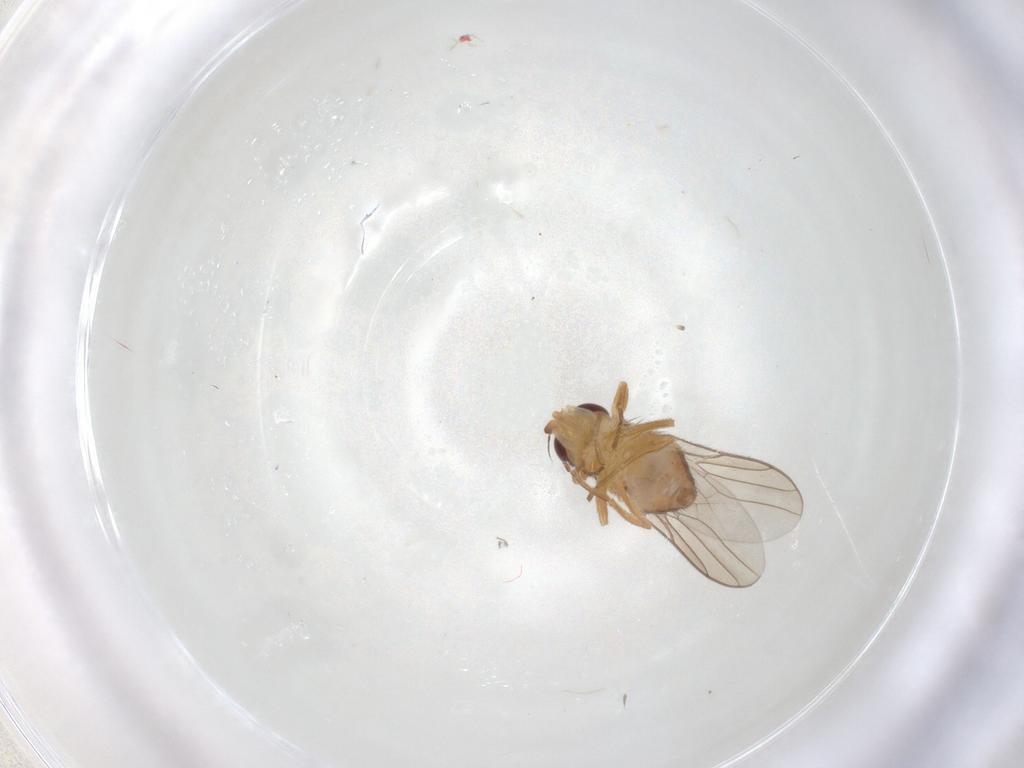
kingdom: Animalia
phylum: Arthropoda
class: Insecta
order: Diptera
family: Chloropidae
